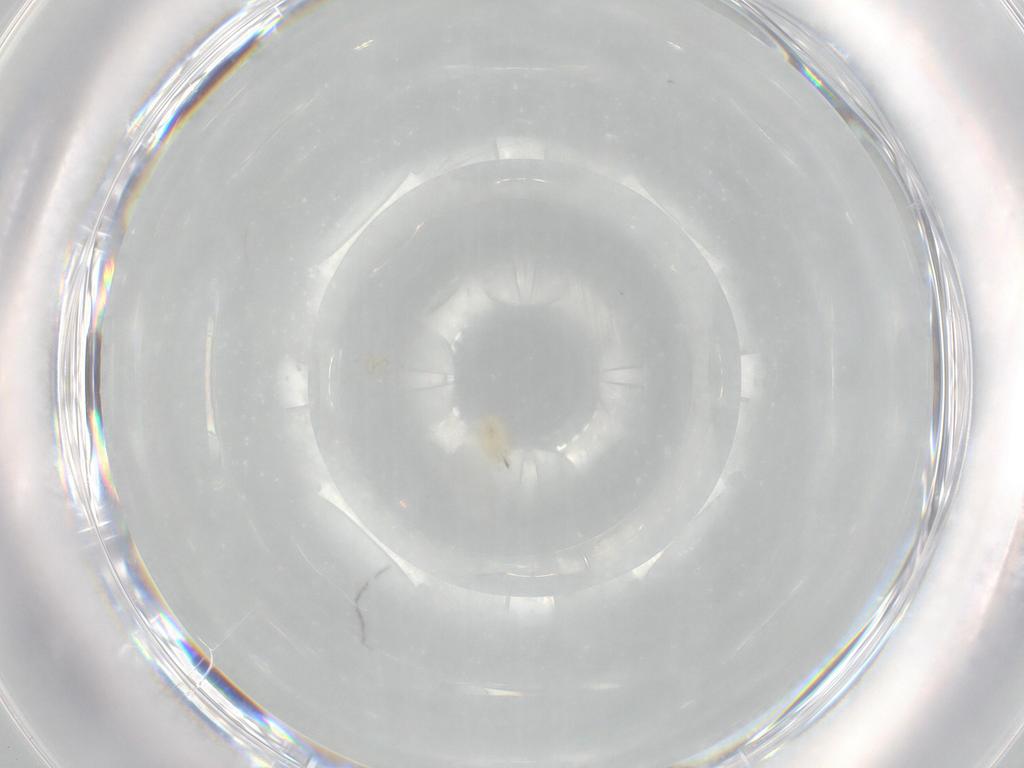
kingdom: Animalia
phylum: Arthropoda
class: Arachnida
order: Trombidiformes
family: Tetranychidae
